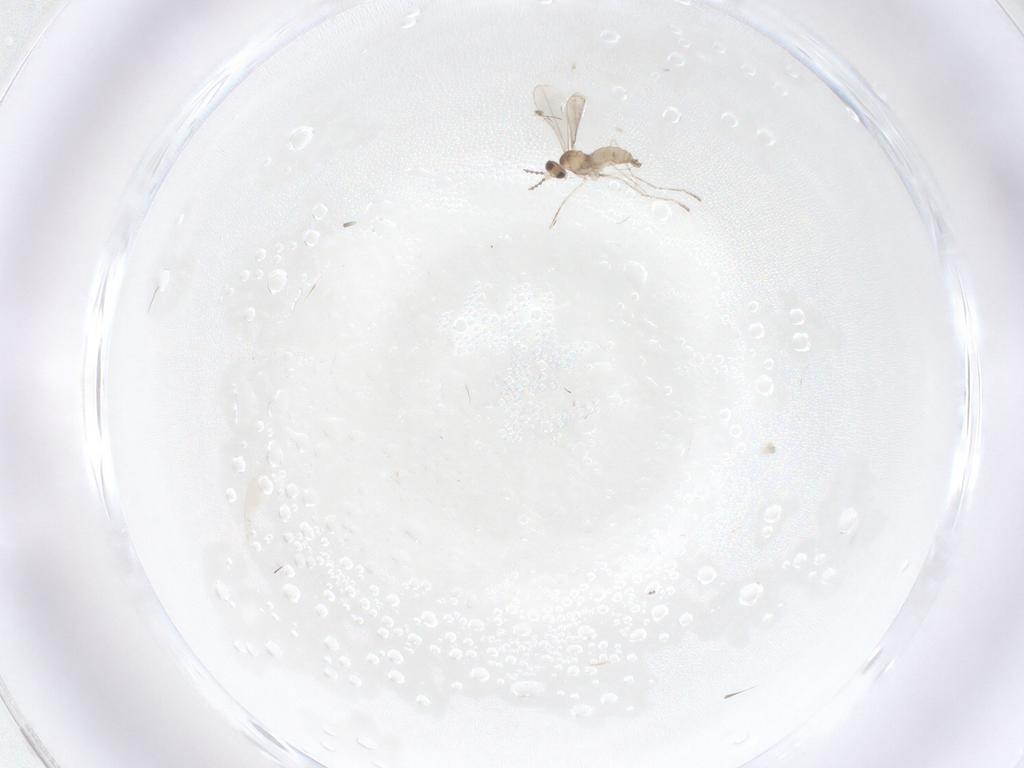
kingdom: Animalia
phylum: Arthropoda
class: Insecta
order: Diptera
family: Cecidomyiidae
